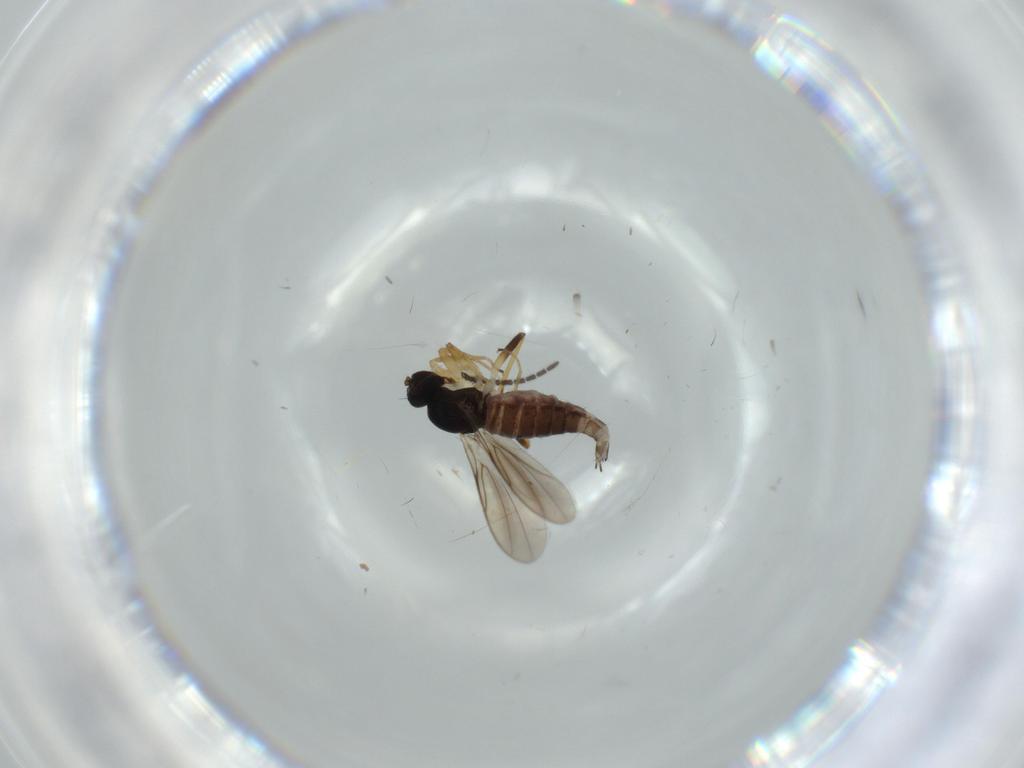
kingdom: Animalia
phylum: Arthropoda
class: Insecta
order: Diptera
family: Hybotidae
